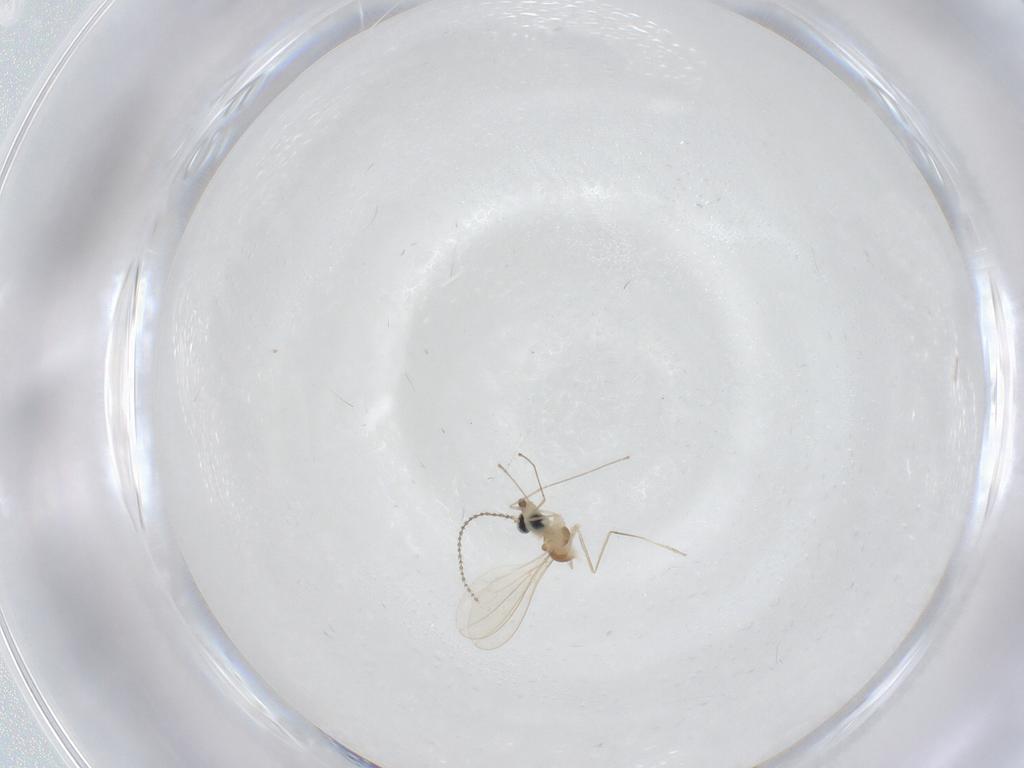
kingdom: Animalia
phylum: Arthropoda
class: Insecta
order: Diptera
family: Cecidomyiidae
